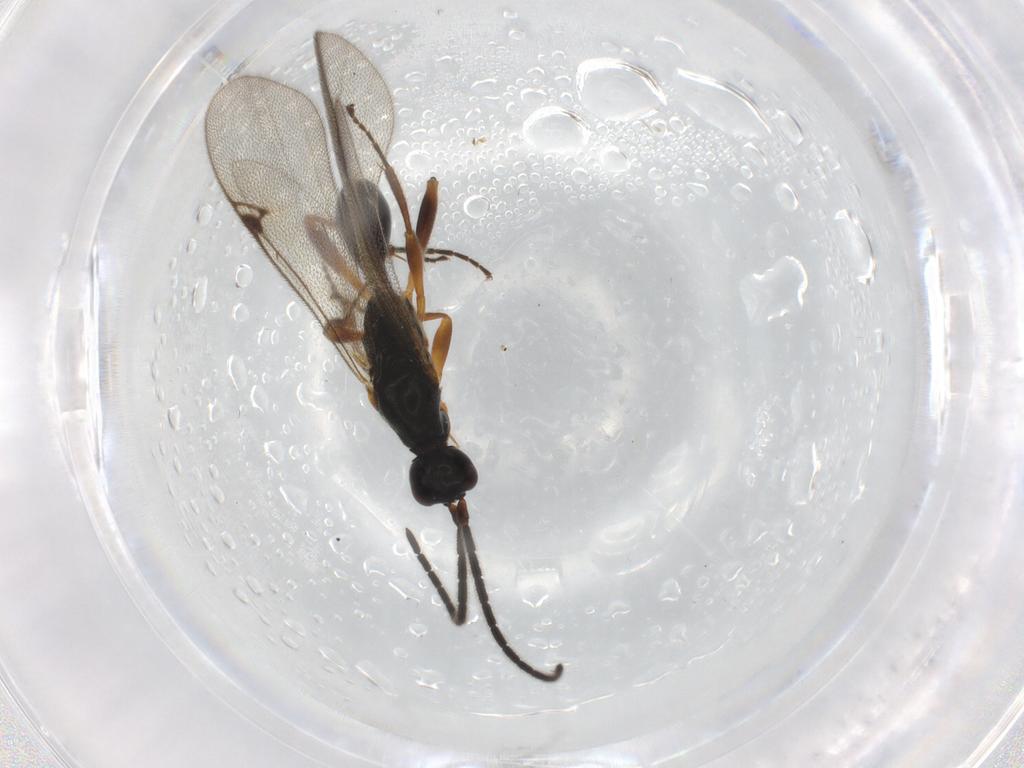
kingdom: Animalia
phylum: Arthropoda
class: Insecta
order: Hymenoptera
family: Proctotrupidae
